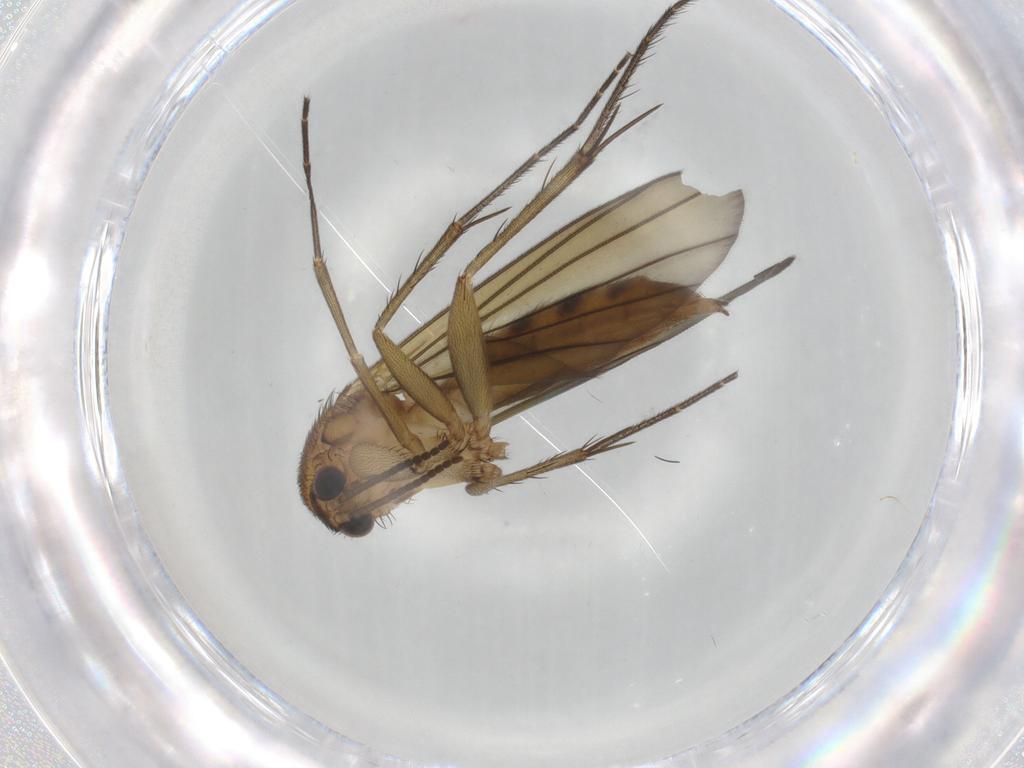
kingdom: Animalia
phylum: Arthropoda
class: Insecta
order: Diptera
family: Mycetophilidae
